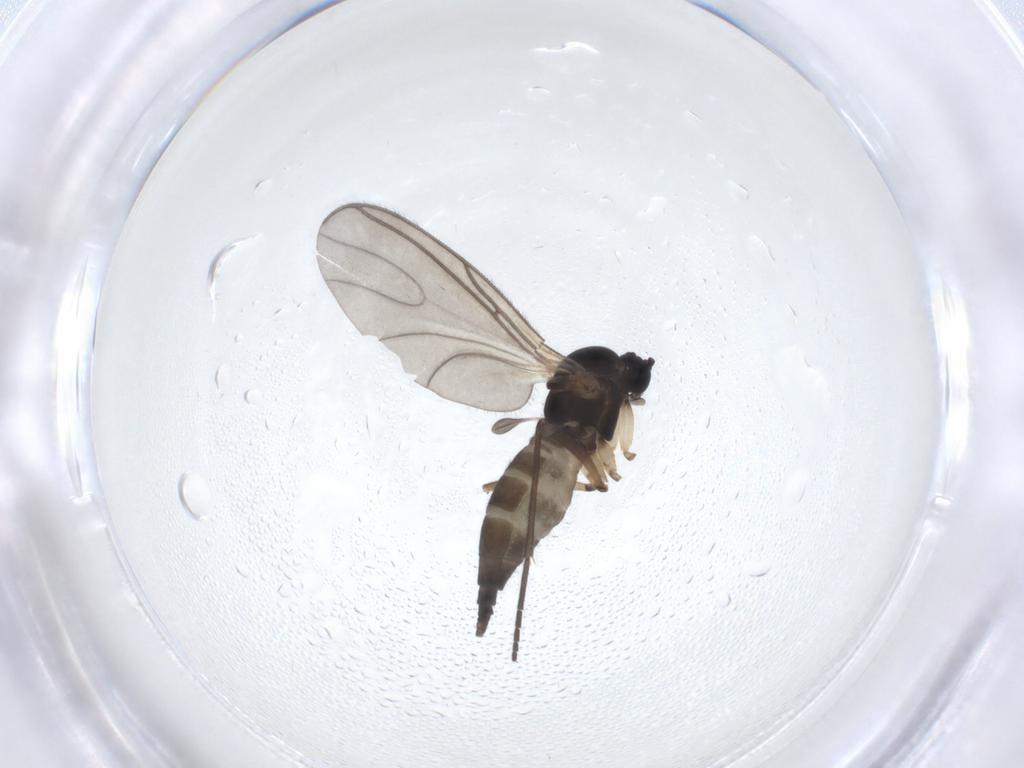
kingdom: Animalia
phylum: Arthropoda
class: Insecta
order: Diptera
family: Sciaridae
